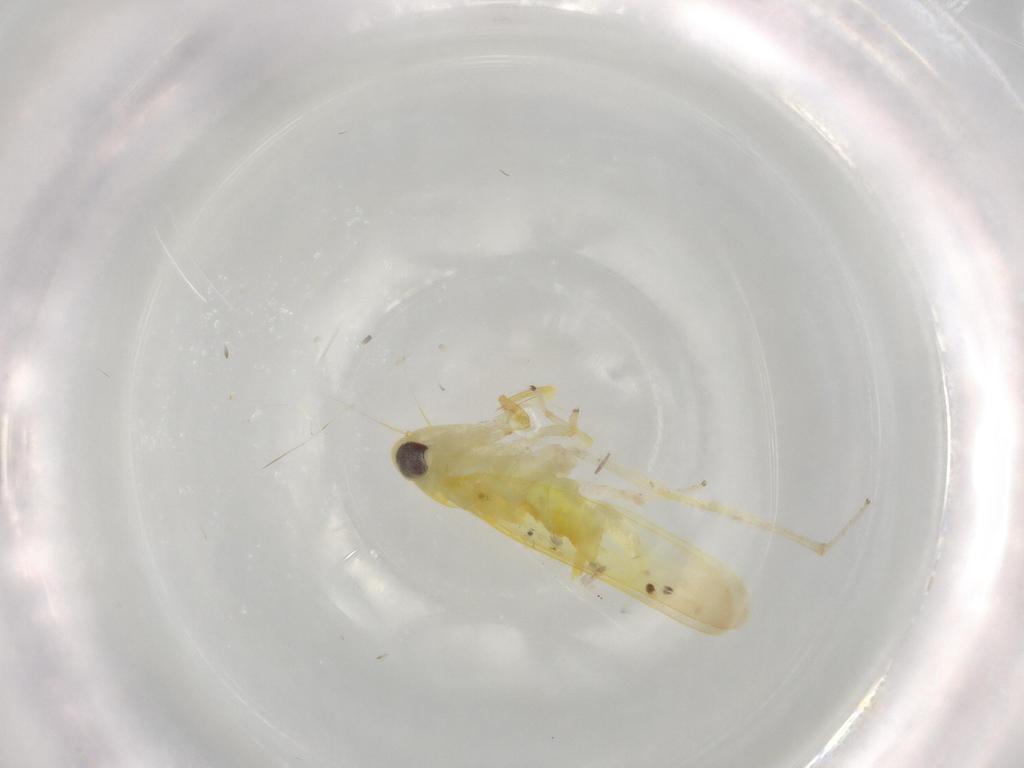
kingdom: Animalia
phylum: Arthropoda
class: Insecta
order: Hemiptera
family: Cicadellidae
